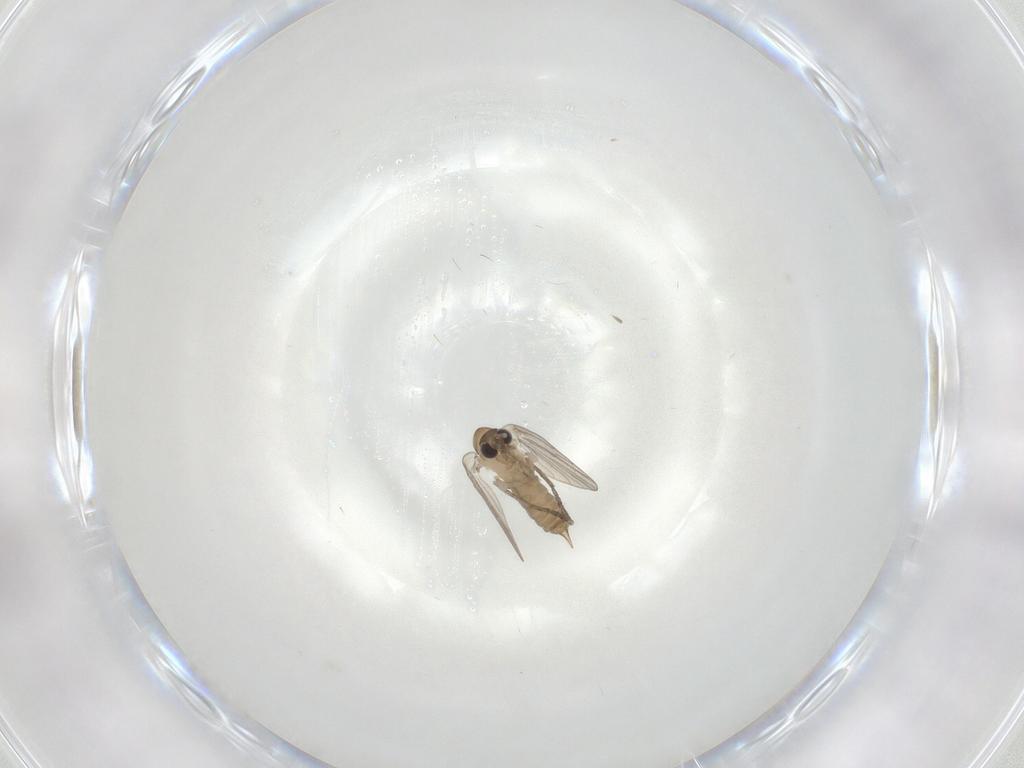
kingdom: Animalia
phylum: Arthropoda
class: Insecta
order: Diptera
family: Psychodidae
